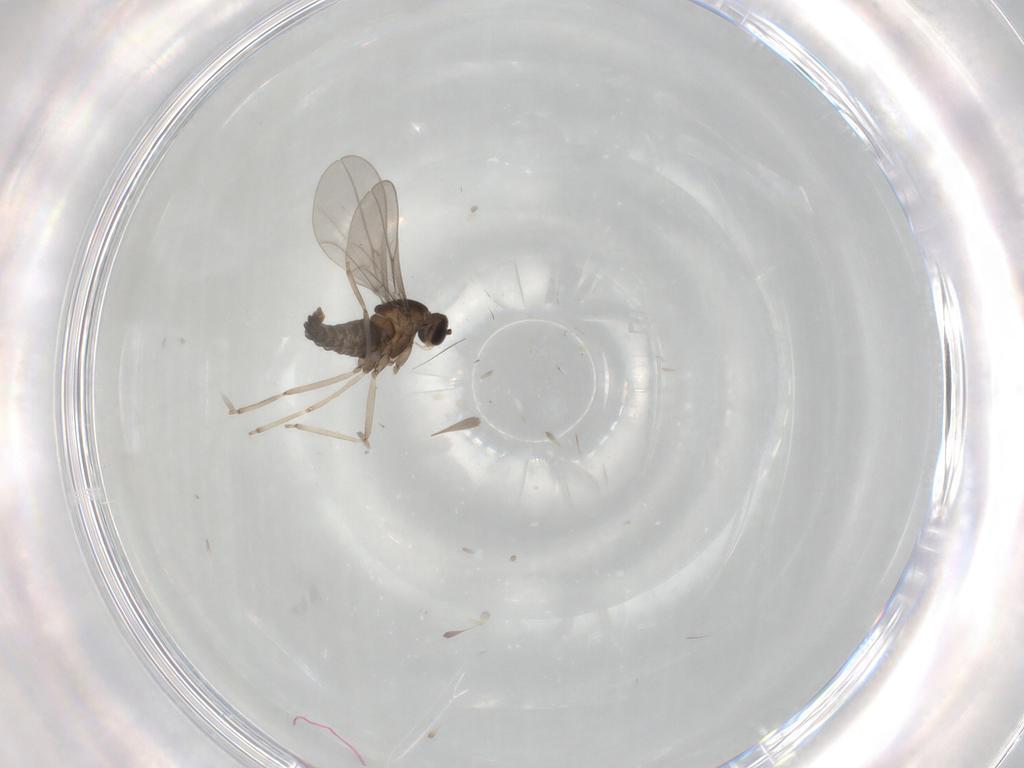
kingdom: Animalia
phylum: Arthropoda
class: Insecta
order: Diptera
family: Cecidomyiidae
